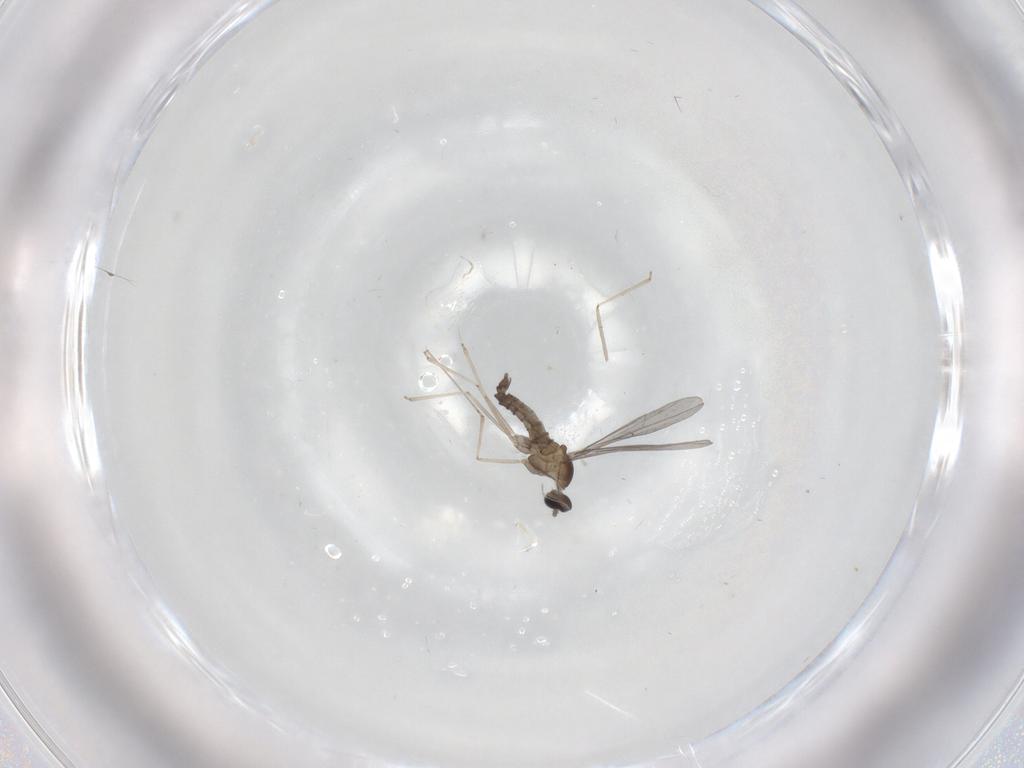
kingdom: Animalia
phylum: Arthropoda
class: Insecta
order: Diptera
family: Cecidomyiidae
